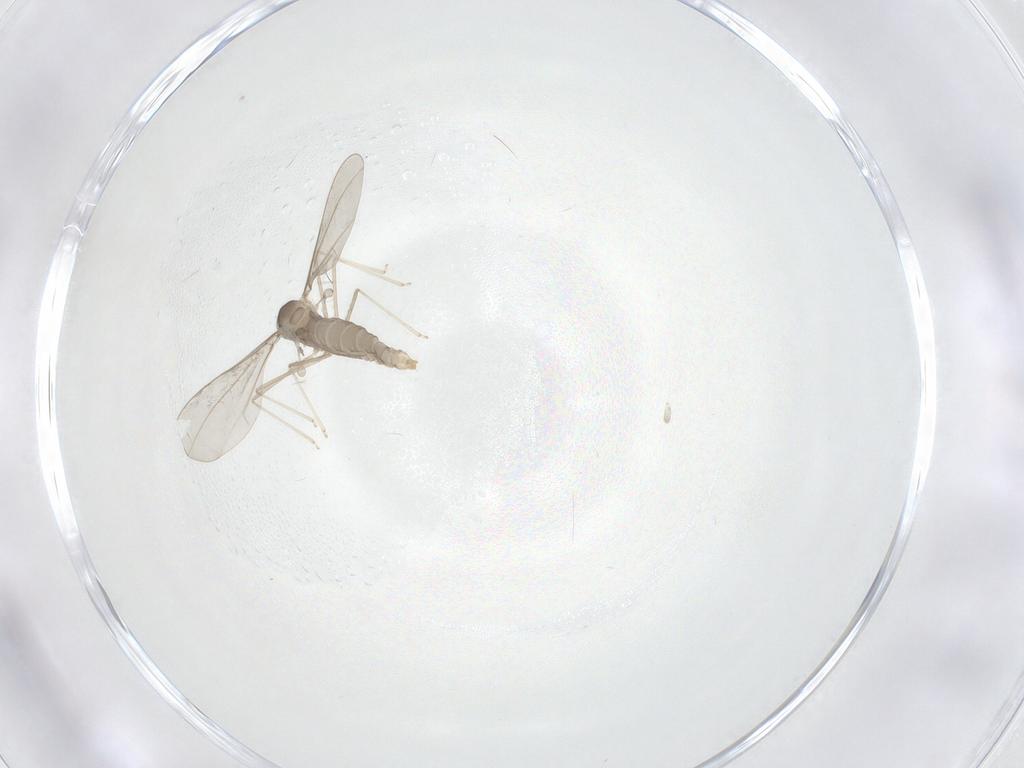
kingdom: Animalia
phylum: Arthropoda
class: Insecta
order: Diptera
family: Cecidomyiidae
